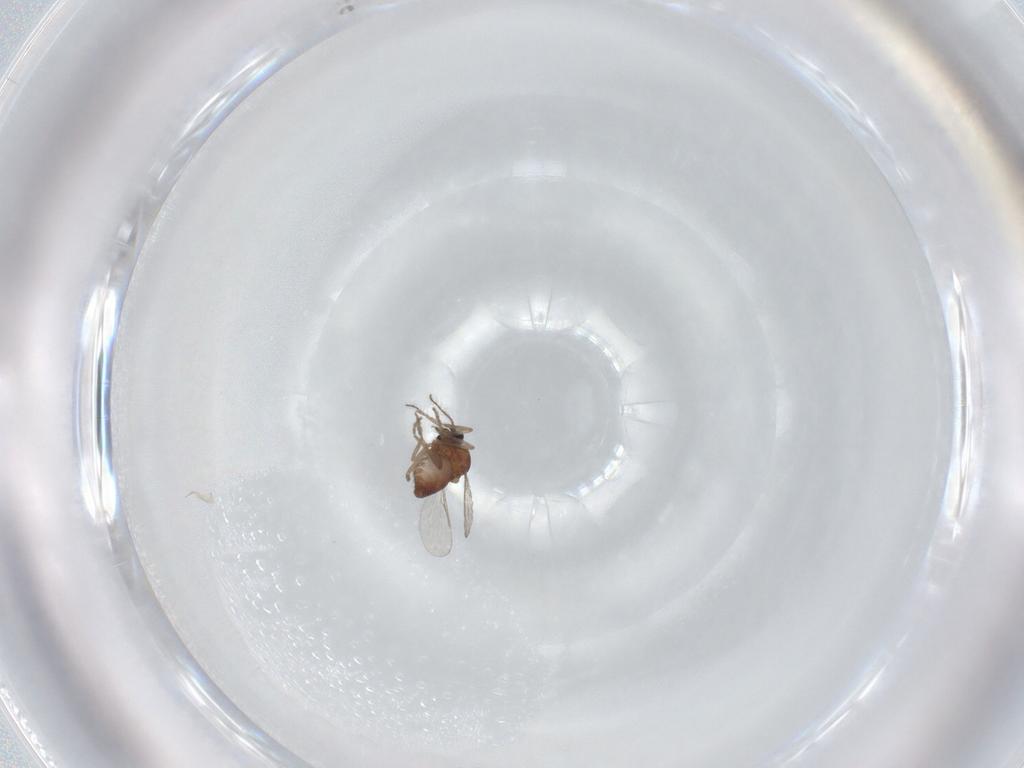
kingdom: Animalia
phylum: Arthropoda
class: Insecta
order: Diptera
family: Ceratopogonidae
